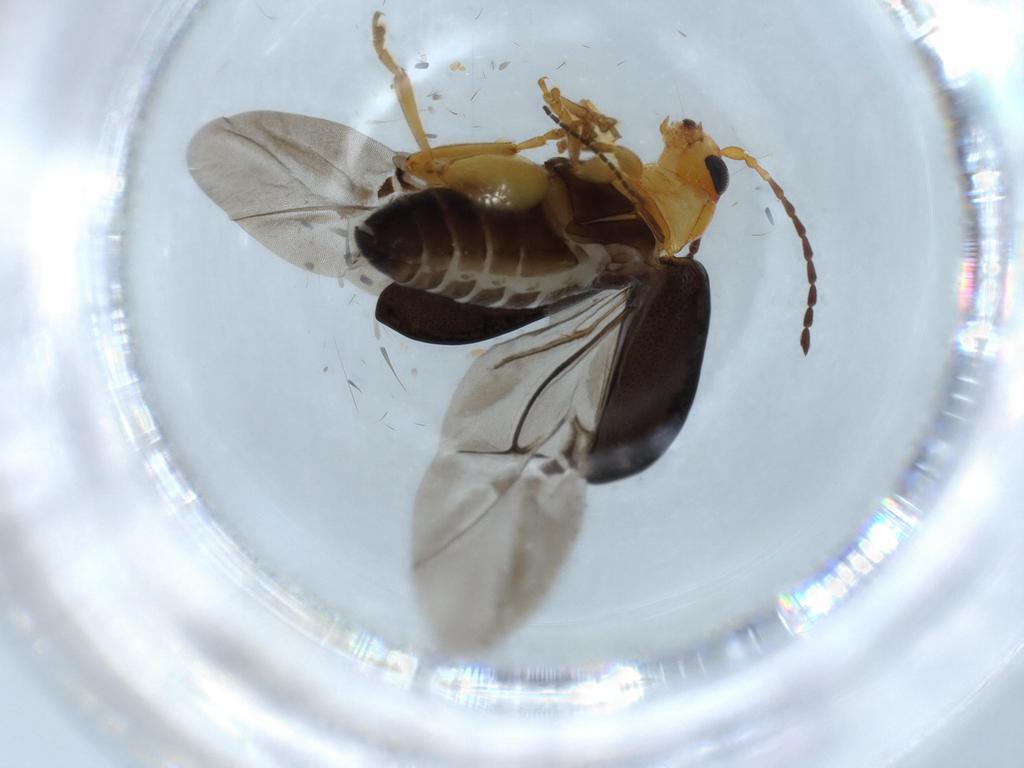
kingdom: Animalia
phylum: Arthropoda
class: Insecta
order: Coleoptera
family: Chrysomelidae
